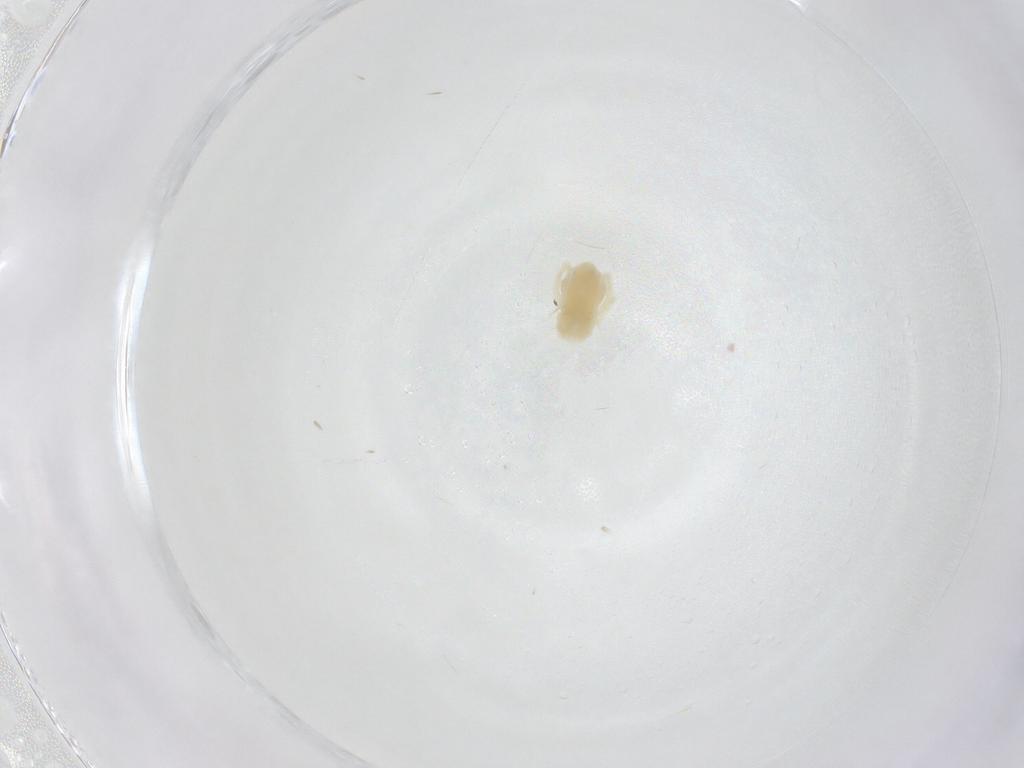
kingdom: Animalia
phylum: Arthropoda
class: Arachnida
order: Trombidiformes
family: Anystidae
